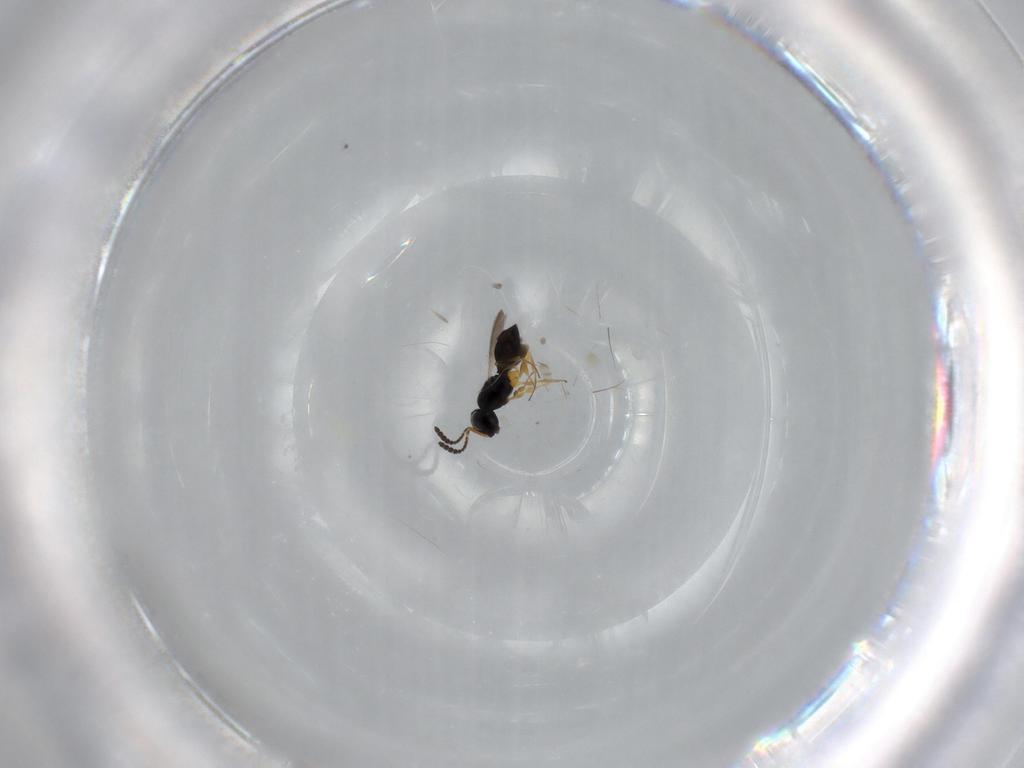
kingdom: Animalia
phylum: Arthropoda
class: Insecta
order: Hymenoptera
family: Scelionidae
